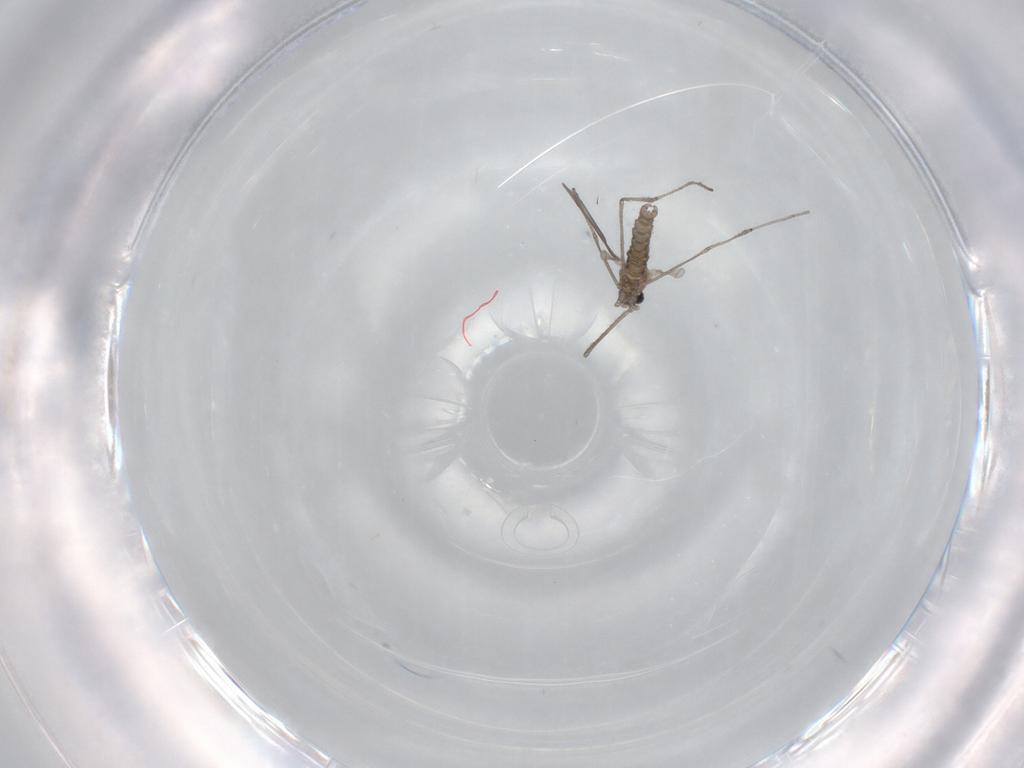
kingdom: Animalia
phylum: Arthropoda
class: Insecta
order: Diptera
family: Cecidomyiidae
